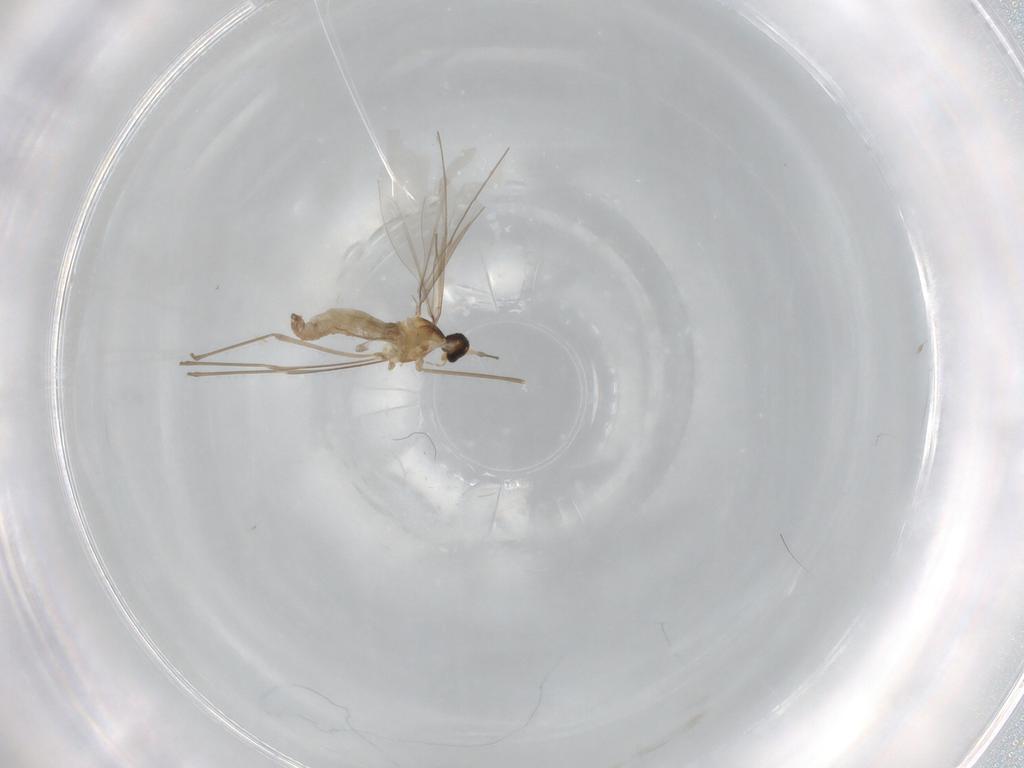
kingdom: Animalia
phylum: Arthropoda
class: Insecta
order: Diptera
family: Cecidomyiidae
